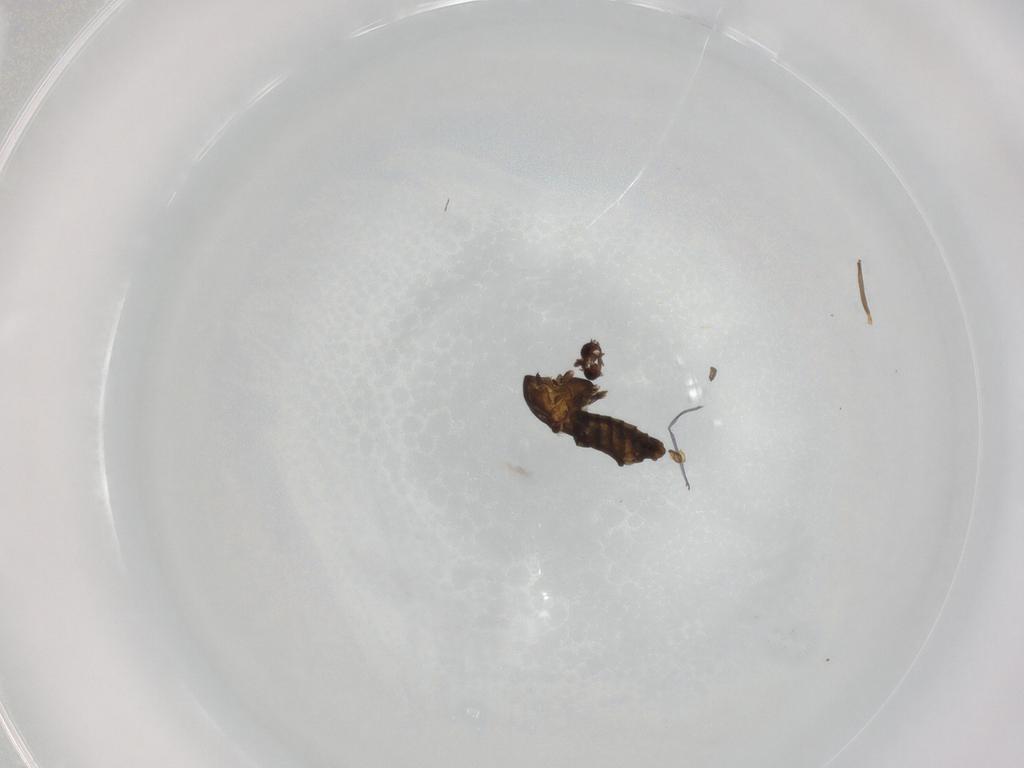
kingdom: Animalia
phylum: Arthropoda
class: Insecta
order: Diptera
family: Chironomidae
